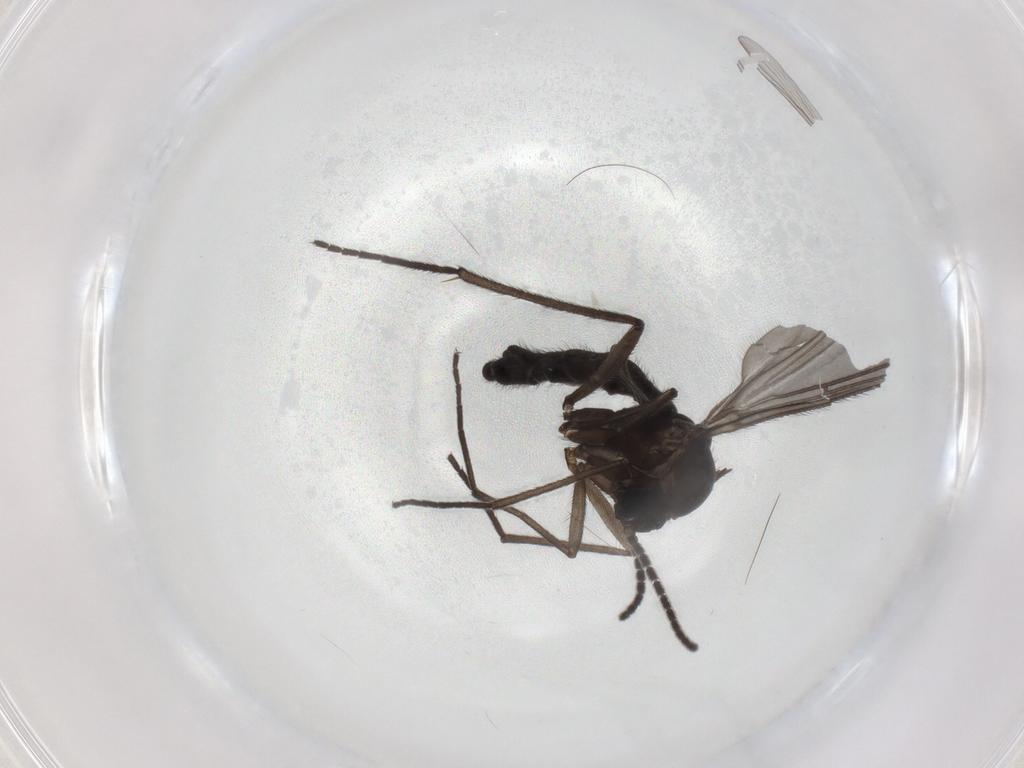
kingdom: Animalia
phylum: Arthropoda
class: Insecta
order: Diptera
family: Sciaridae
